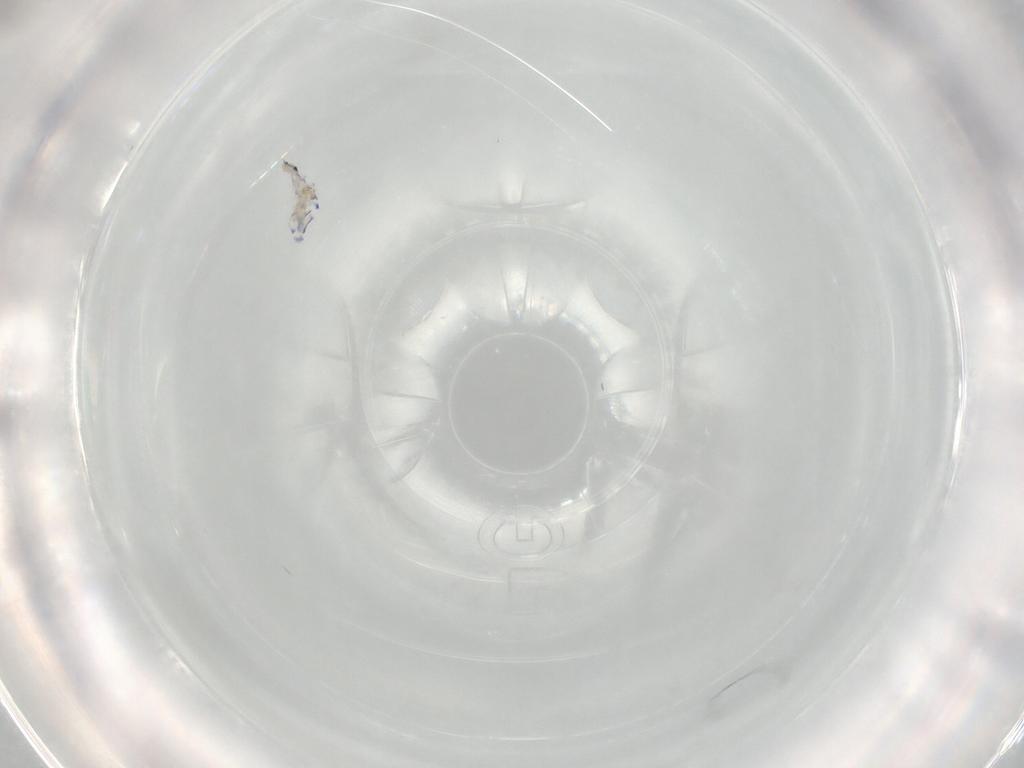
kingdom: Animalia
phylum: Arthropoda
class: Collembola
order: Entomobryomorpha
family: Entomobryidae
